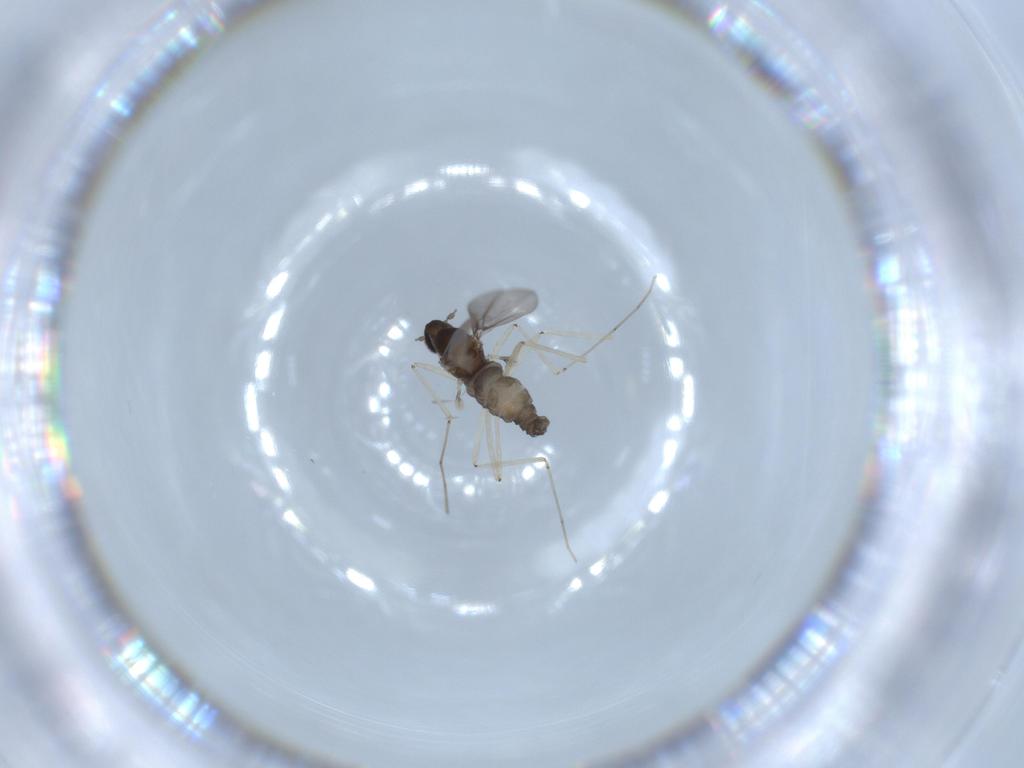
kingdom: Animalia
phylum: Arthropoda
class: Insecta
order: Diptera
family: Cecidomyiidae
